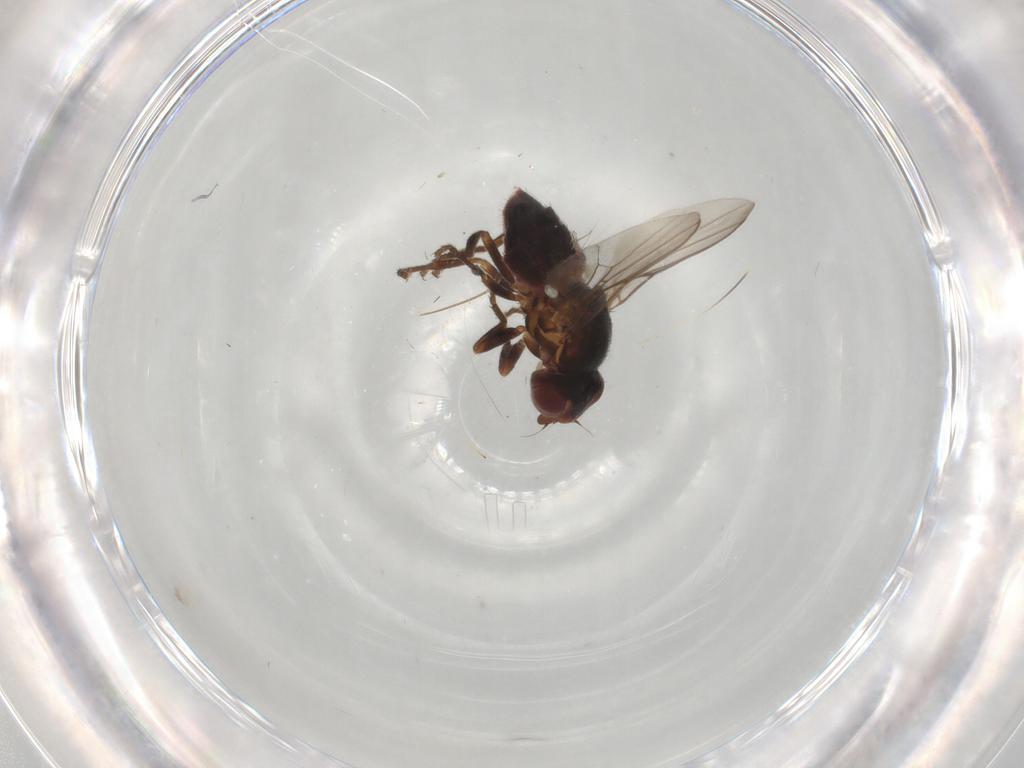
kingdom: Animalia
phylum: Arthropoda
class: Insecta
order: Diptera
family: Chloropidae
